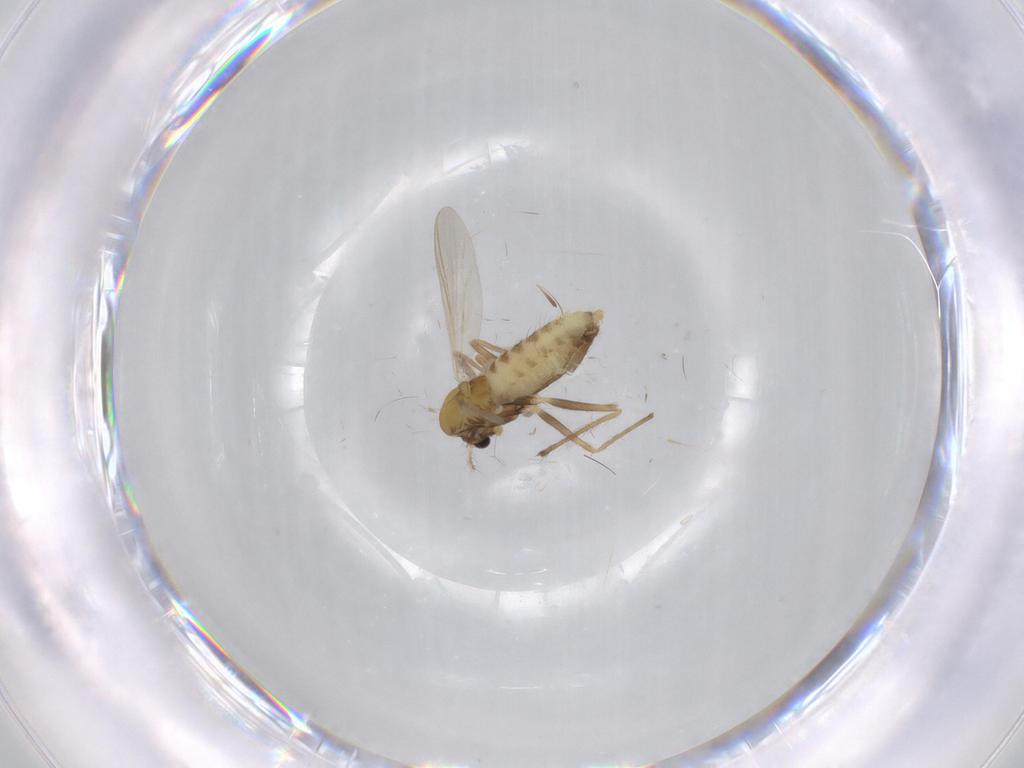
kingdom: Animalia
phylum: Arthropoda
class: Insecta
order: Diptera
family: Chironomidae
